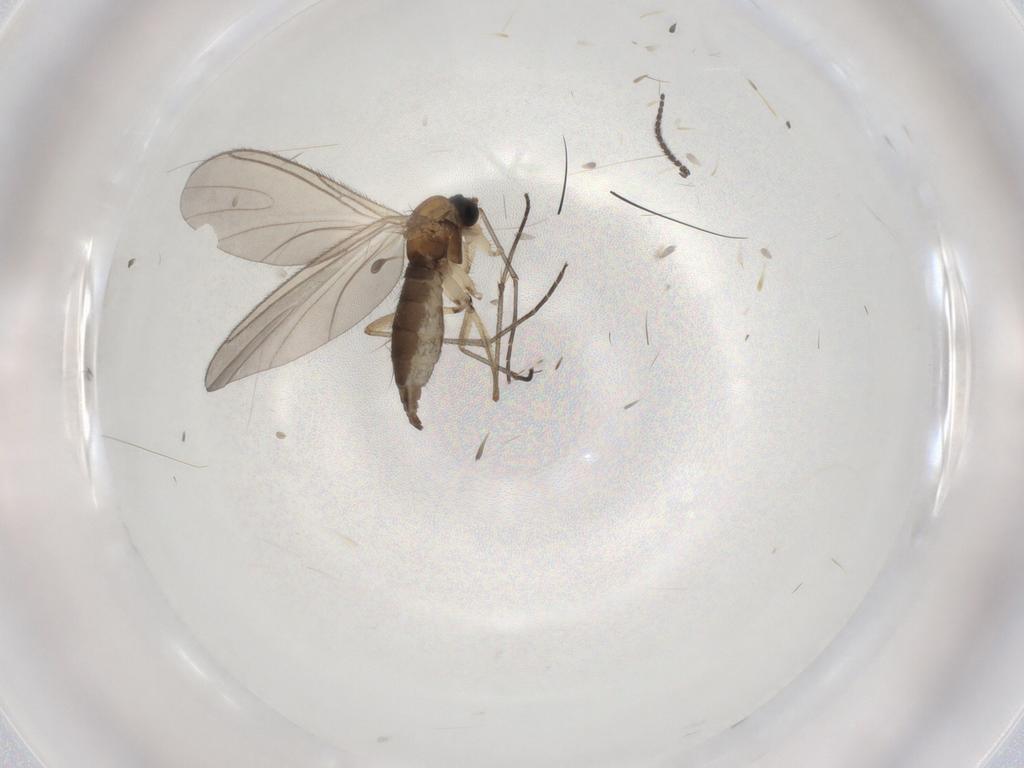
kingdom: Animalia
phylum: Arthropoda
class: Insecta
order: Diptera
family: Sciaridae
